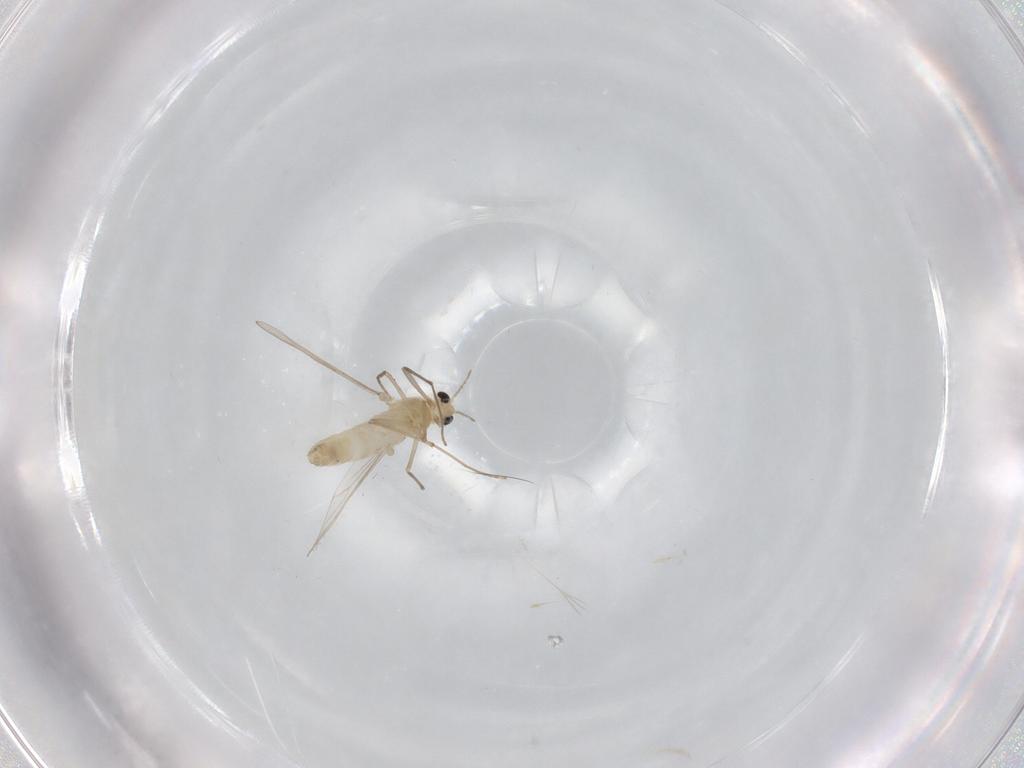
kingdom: Animalia
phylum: Arthropoda
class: Insecta
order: Diptera
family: Chironomidae
